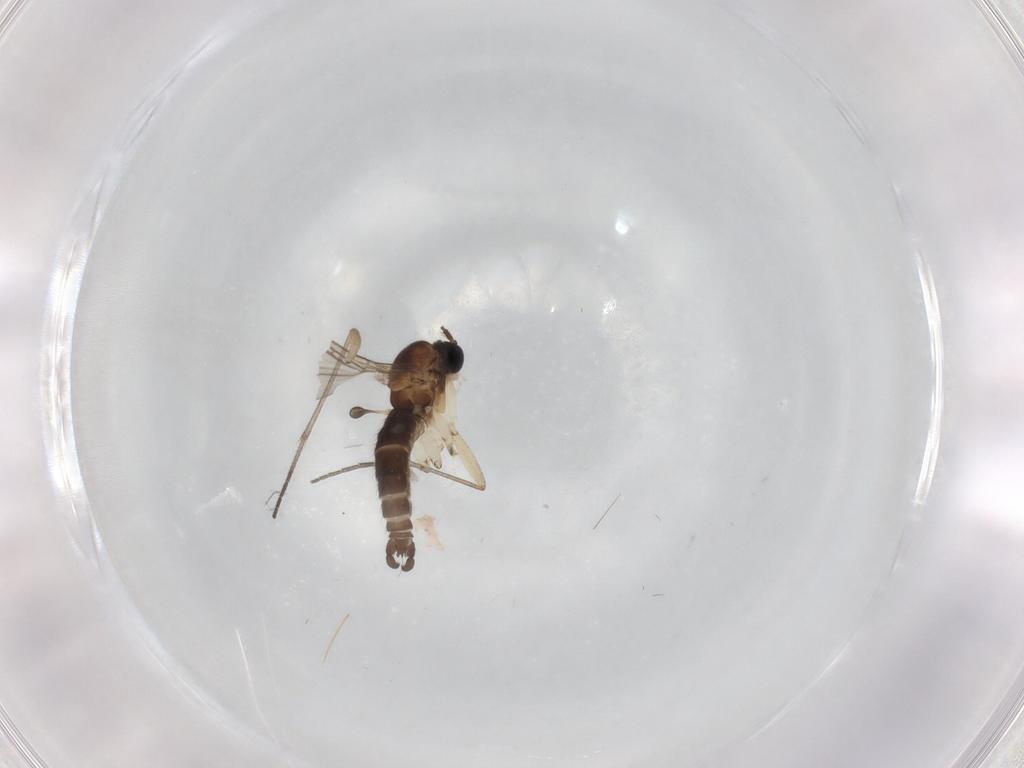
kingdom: Animalia
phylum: Arthropoda
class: Insecta
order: Diptera
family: Sciaridae
